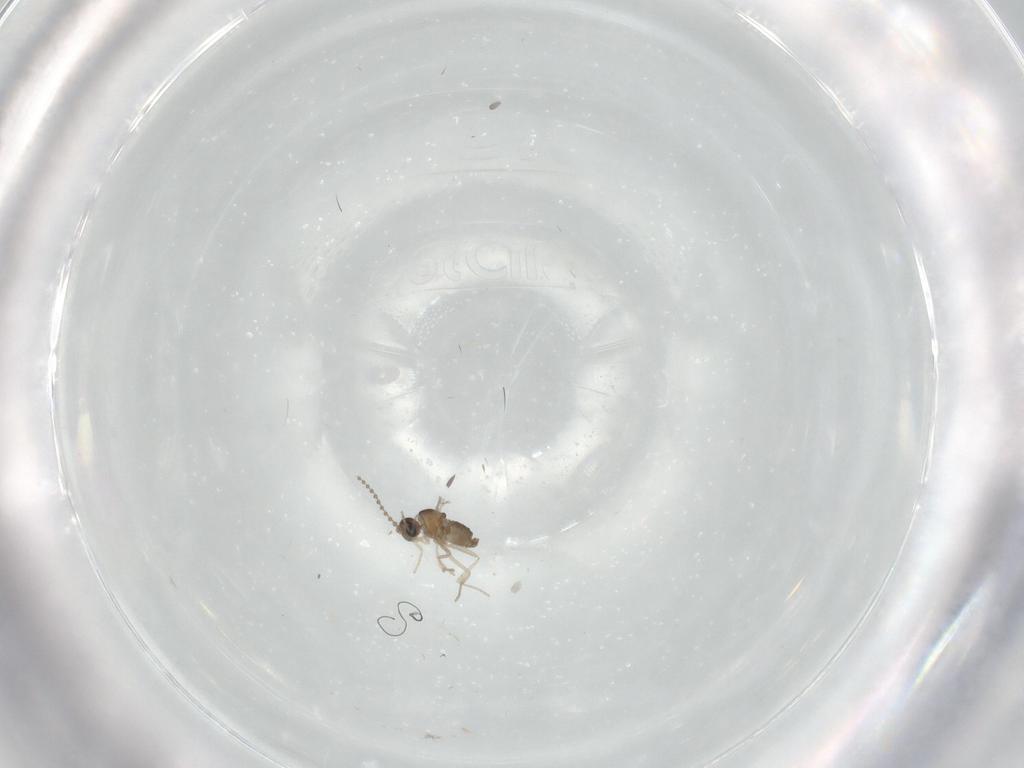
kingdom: Animalia
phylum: Arthropoda
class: Insecta
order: Diptera
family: Cecidomyiidae
